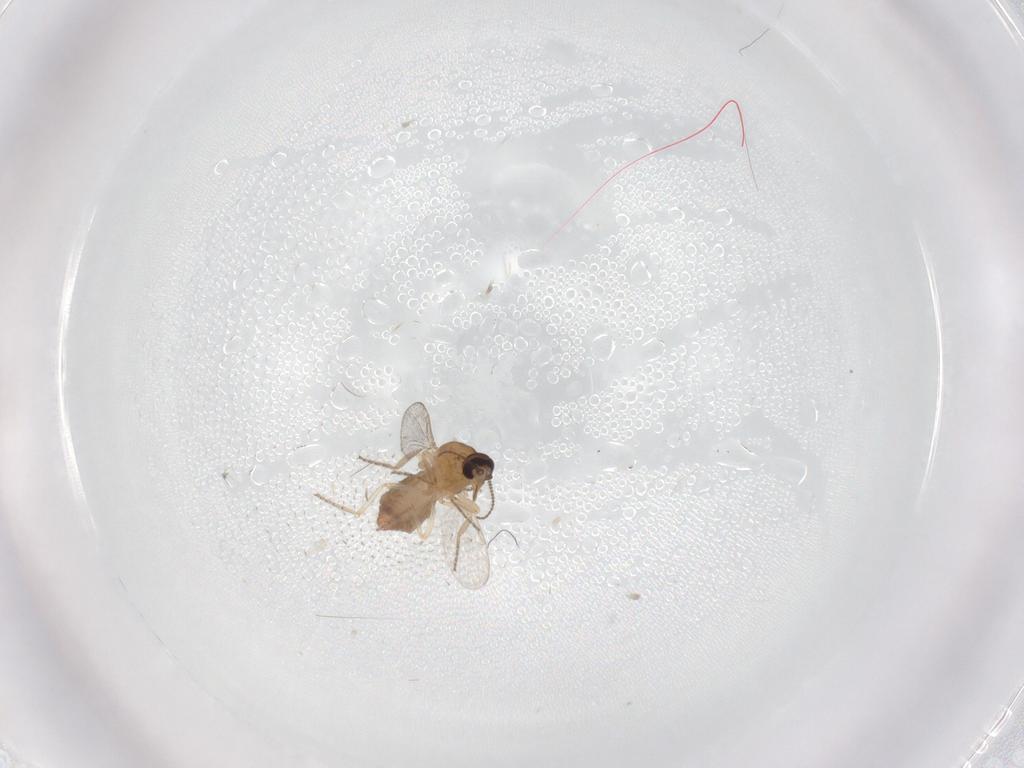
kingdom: Animalia
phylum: Arthropoda
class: Insecta
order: Diptera
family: Ceratopogonidae
